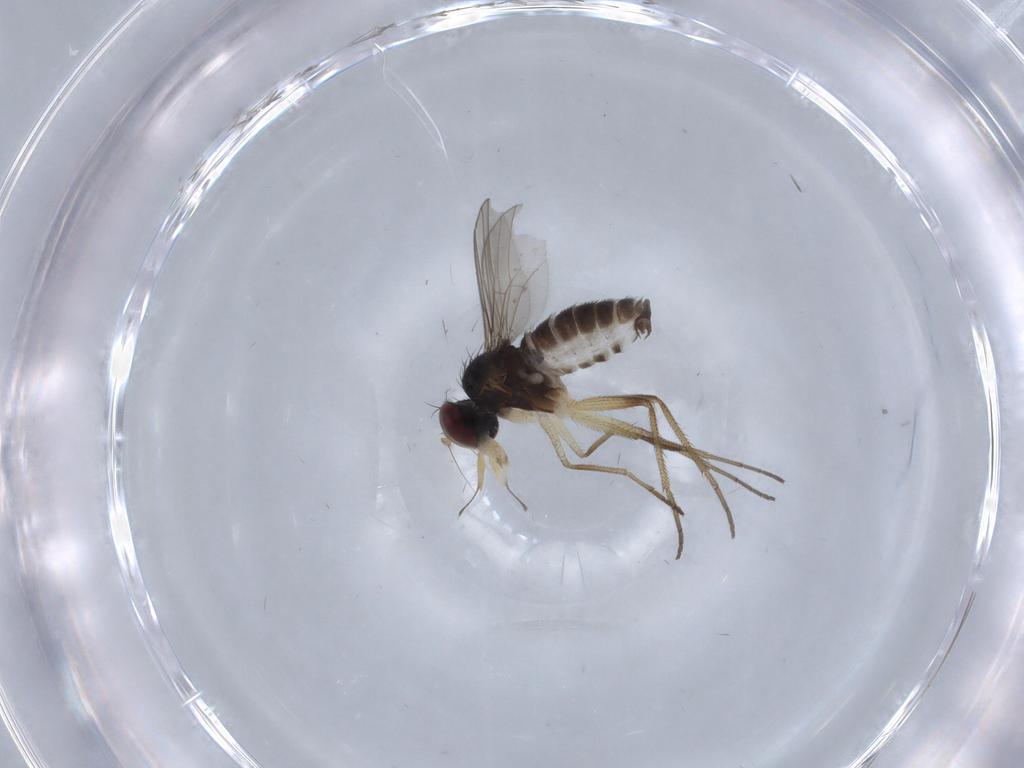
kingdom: Animalia
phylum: Arthropoda
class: Insecta
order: Diptera
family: Dolichopodidae
